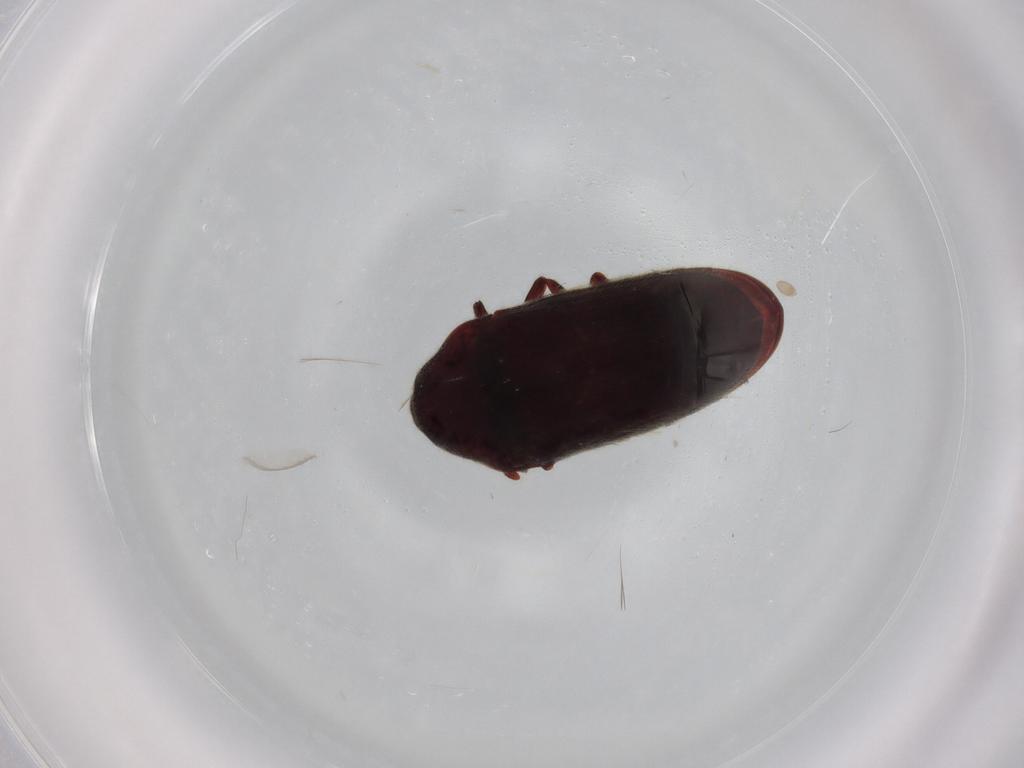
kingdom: Animalia
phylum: Arthropoda
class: Insecta
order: Coleoptera
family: Throscidae
